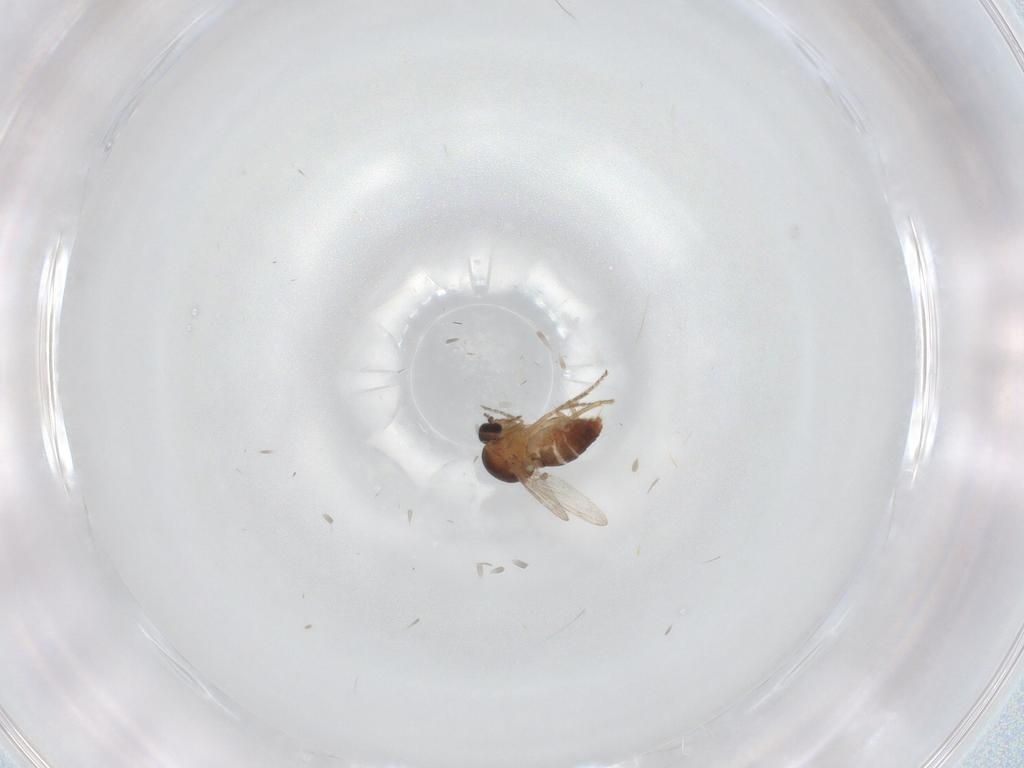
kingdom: Animalia
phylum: Arthropoda
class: Insecta
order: Diptera
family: Ceratopogonidae
